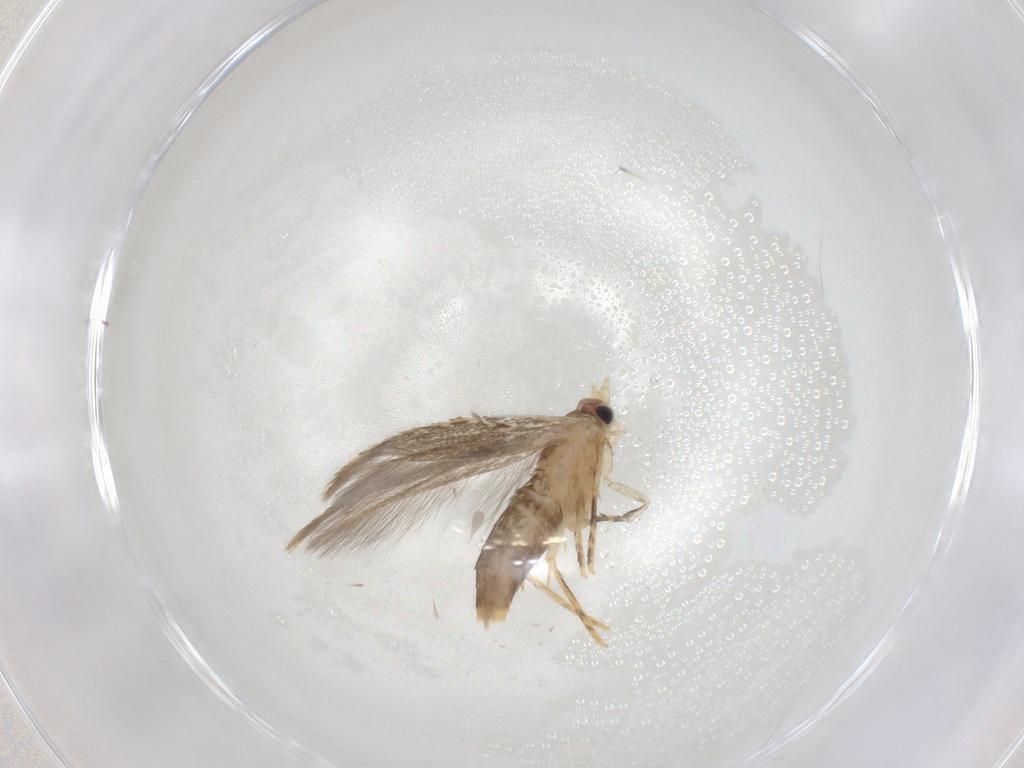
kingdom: Animalia
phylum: Arthropoda
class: Insecta
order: Lepidoptera
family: Tineidae
